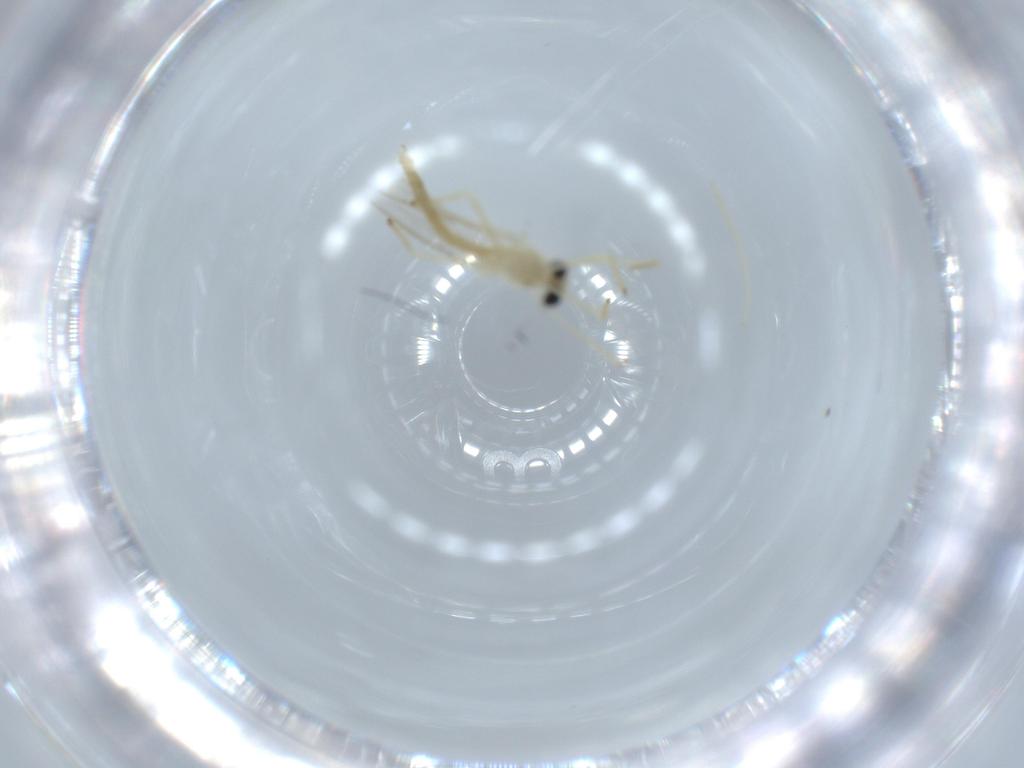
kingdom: Animalia
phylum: Arthropoda
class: Insecta
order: Diptera
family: Chironomidae
